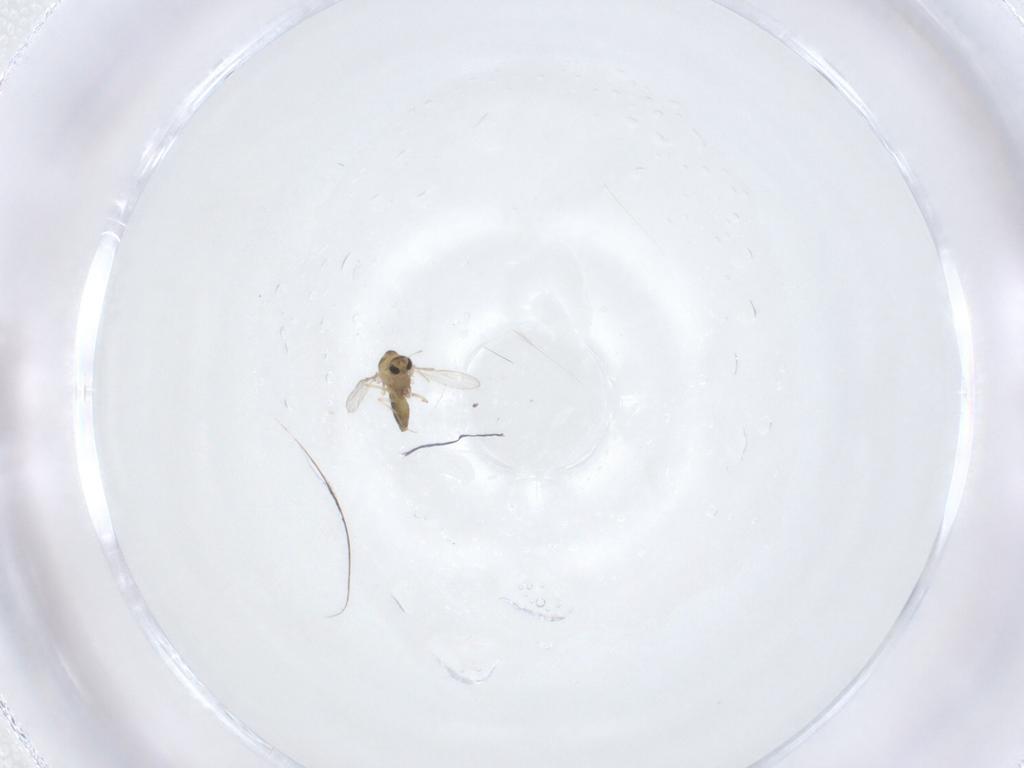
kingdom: Animalia
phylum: Arthropoda
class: Insecta
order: Diptera
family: Chironomidae
